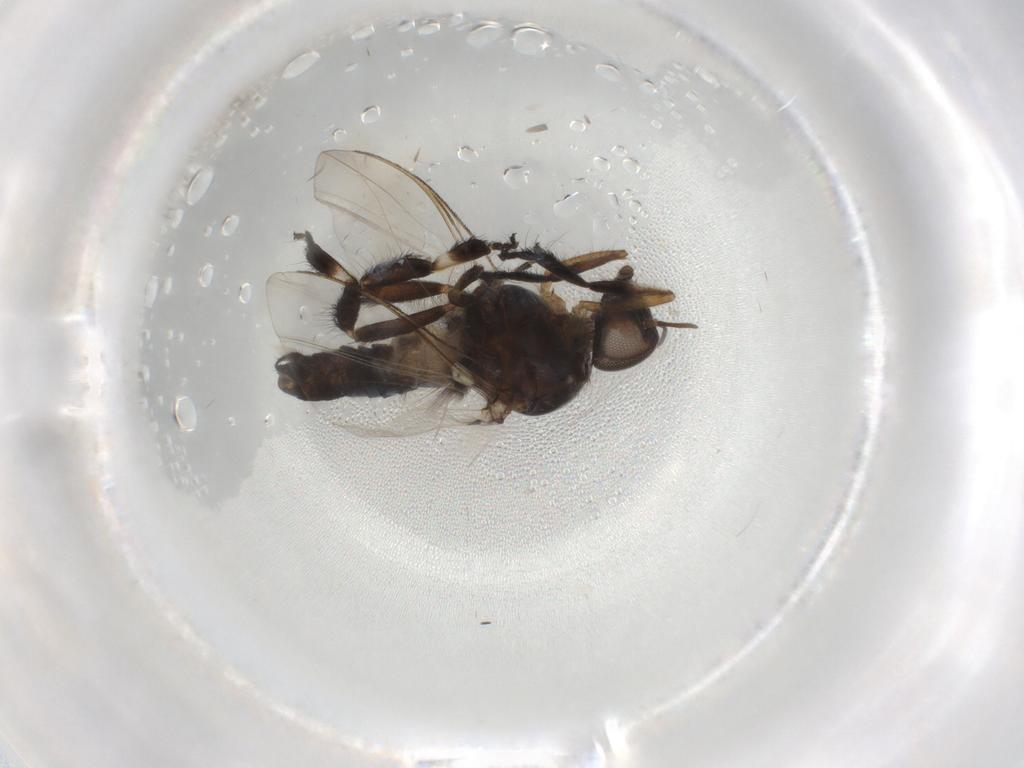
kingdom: Animalia
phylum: Arthropoda
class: Insecta
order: Diptera
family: Simuliidae
